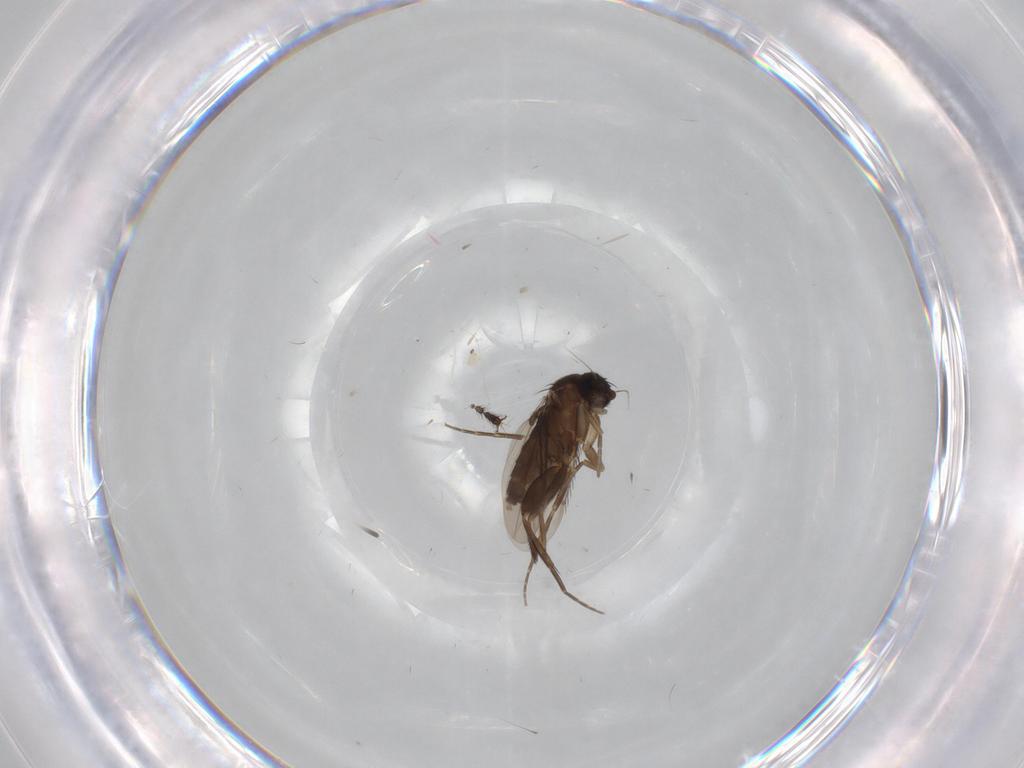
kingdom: Animalia
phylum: Arthropoda
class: Insecta
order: Diptera
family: Phoridae
